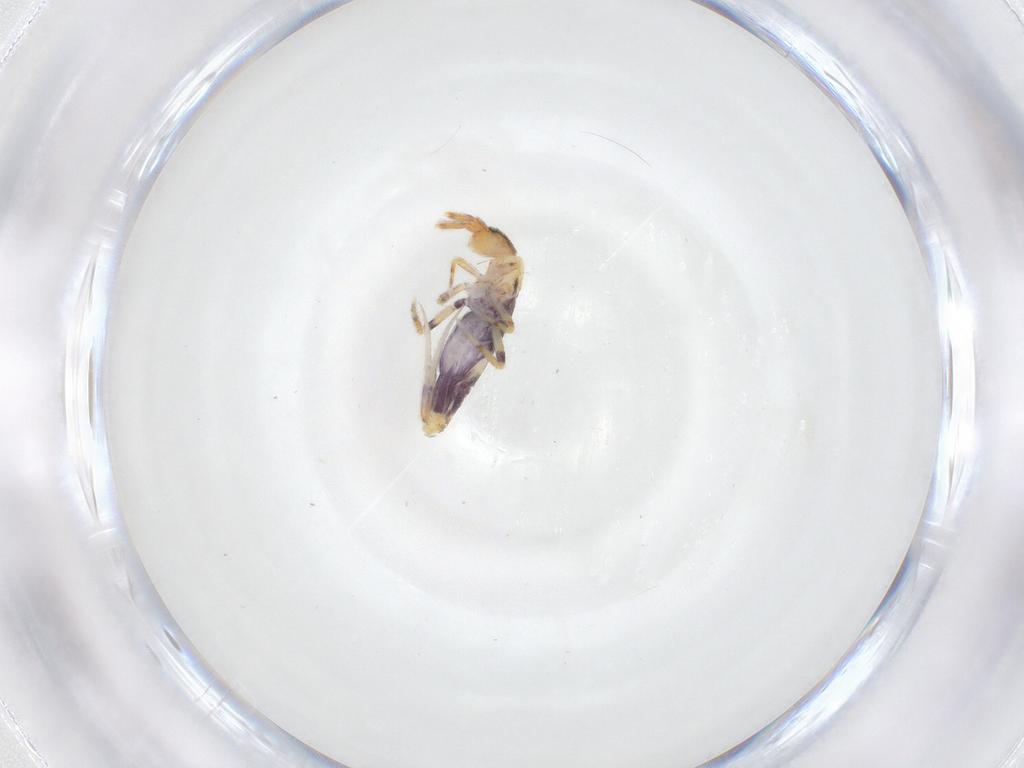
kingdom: Animalia
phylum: Arthropoda
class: Collembola
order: Entomobryomorpha
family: Entomobryidae
